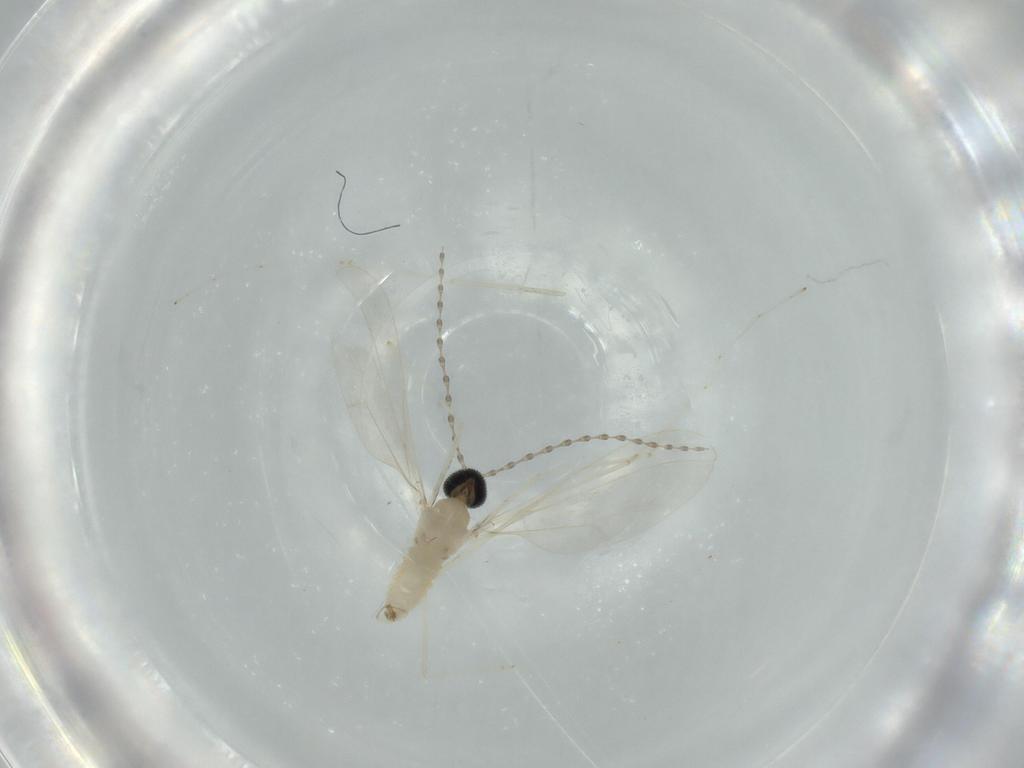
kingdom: Animalia
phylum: Arthropoda
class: Insecta
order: Diptera
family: Cecidomyiidae
